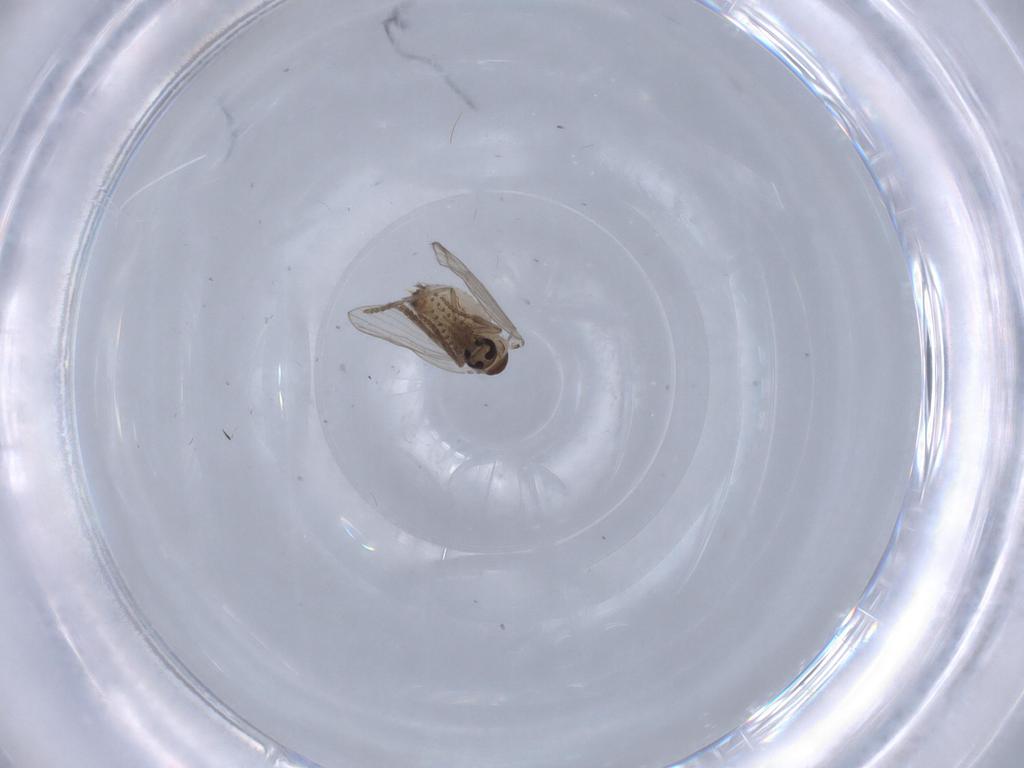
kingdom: Animalia
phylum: Arthropoda
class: Insecta
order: Diptera
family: Psychodidae
